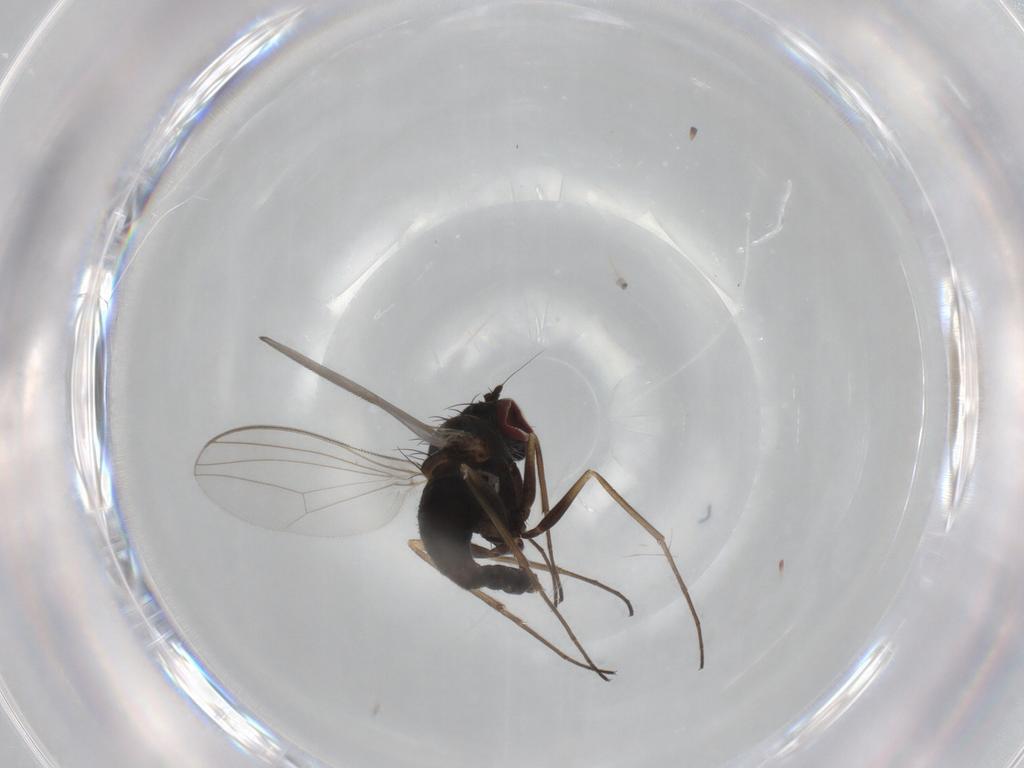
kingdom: Animalia
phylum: Arthropoda
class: Insecta
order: Diptera
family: Dolichopodidae
